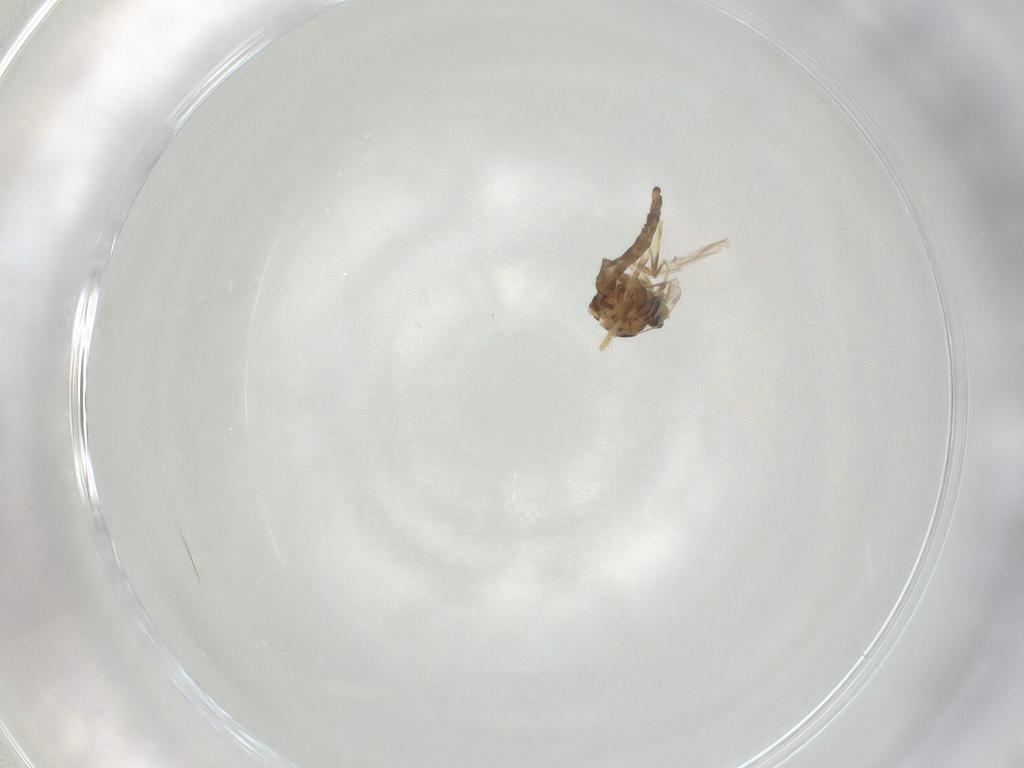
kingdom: Animalia
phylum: Arthropoda
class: Insecta
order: Diptera
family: Ceratopogonidae
